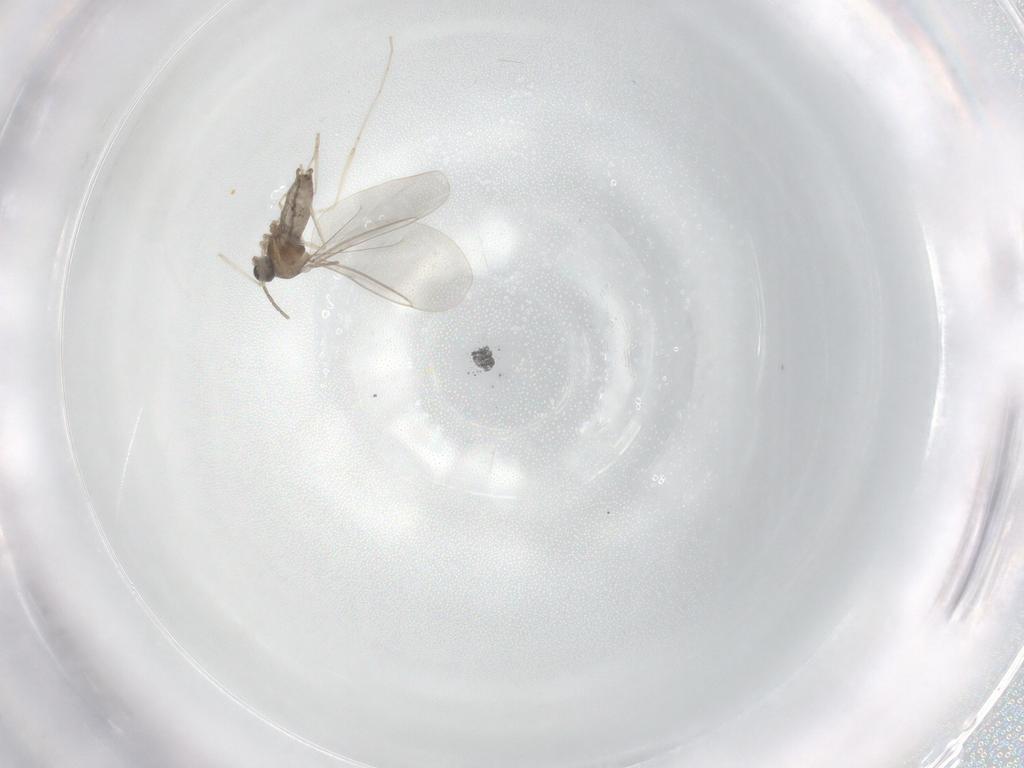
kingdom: Animalia
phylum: Arthropoda
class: Insecta
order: Diptera
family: Cecidomyiidae
